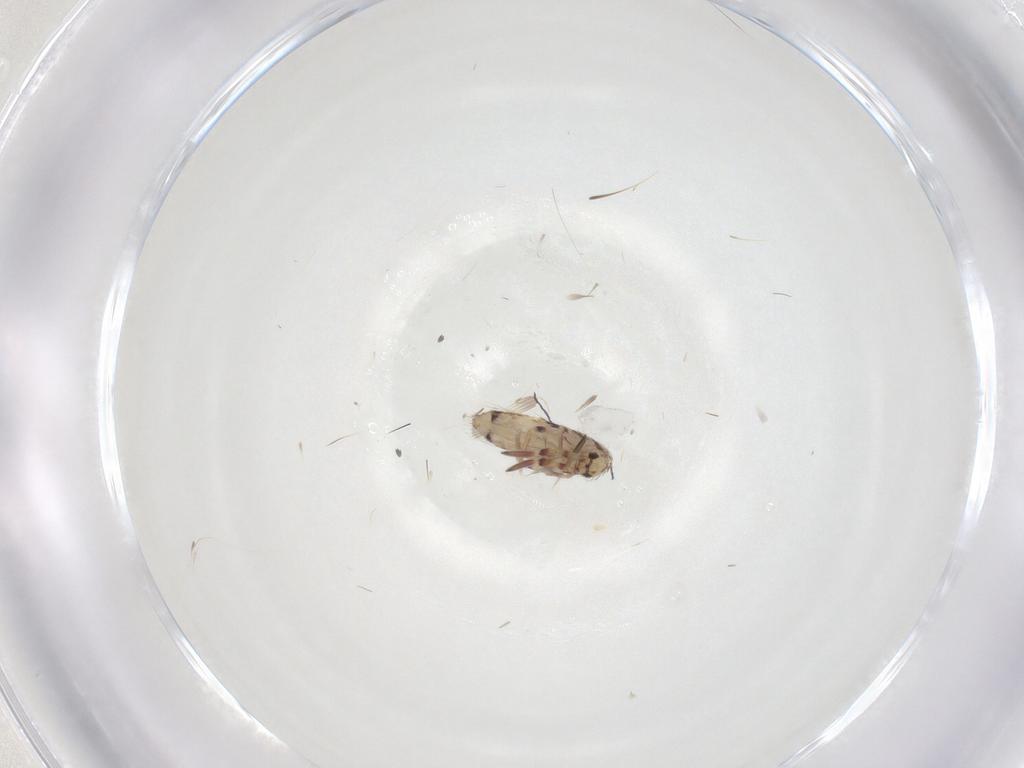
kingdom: Animalia
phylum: Arthropoda
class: Collembola
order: Entomobryomorpha
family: Entomobryidae
